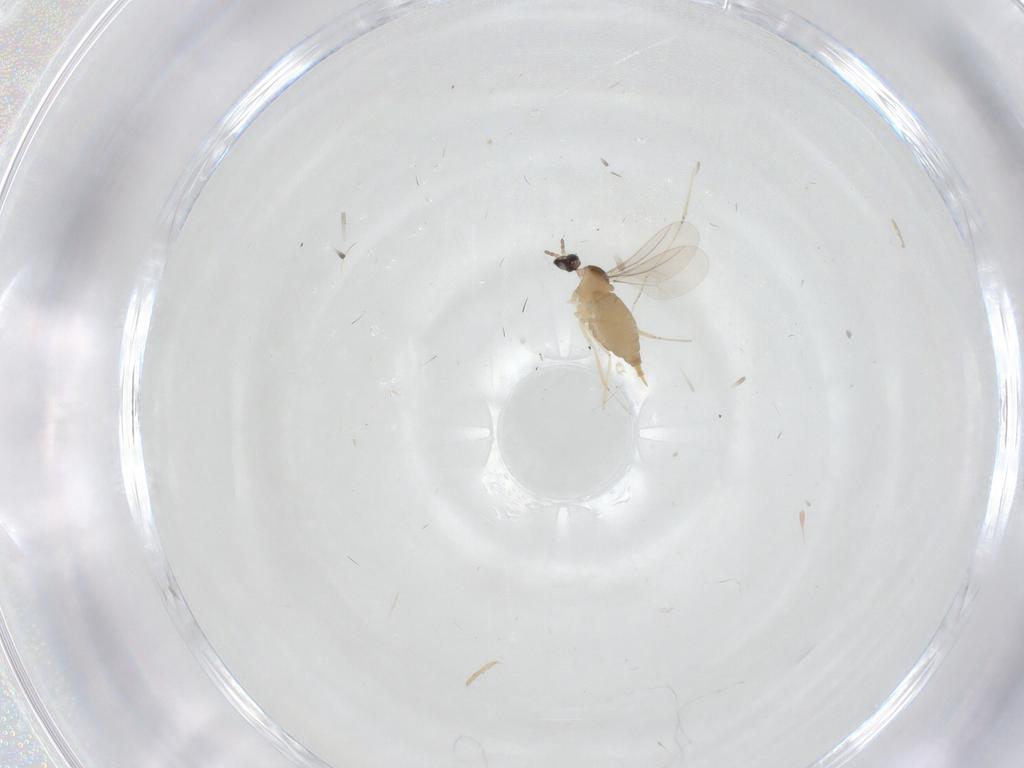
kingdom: Animalia
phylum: Arthropoda
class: Insecta
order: Diptera
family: Cecidomyiidae
